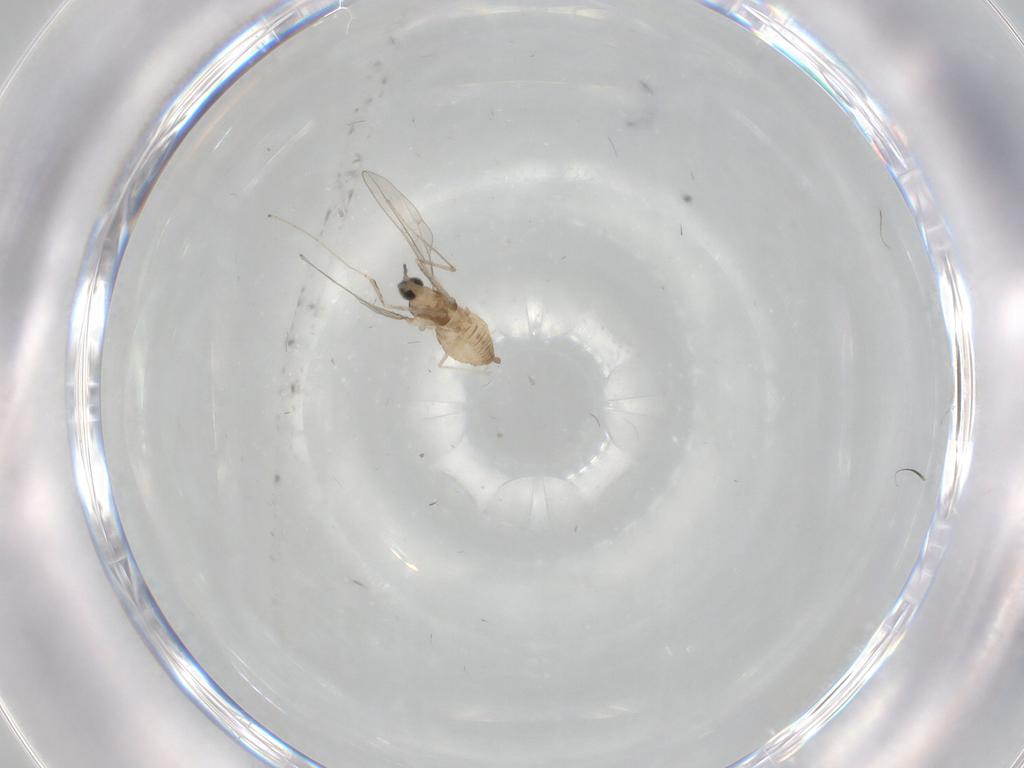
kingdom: Animalia
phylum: Arthropoda
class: Insecta
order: Diptera
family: Cecidomyiidae
